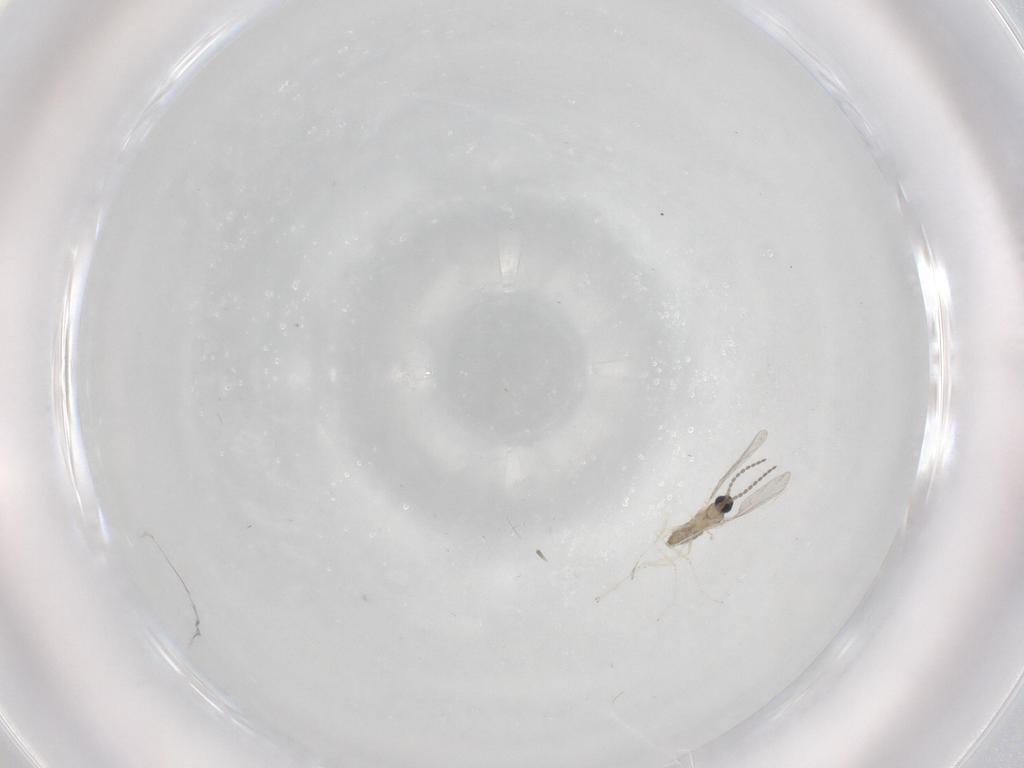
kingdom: Animalia
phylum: Arthropoda
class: Insecta
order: Diptera
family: Cecidomyiidae
